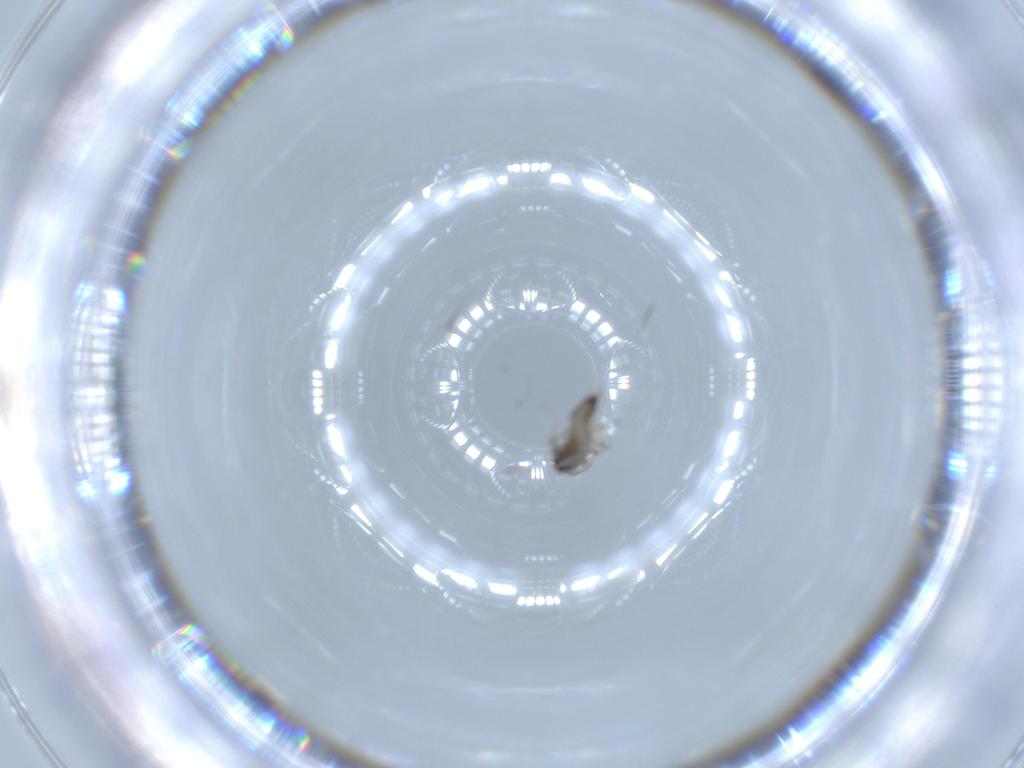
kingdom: Animalia
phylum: Arthropoda
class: Insecta
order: Diptera
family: Cecidomyiidae
